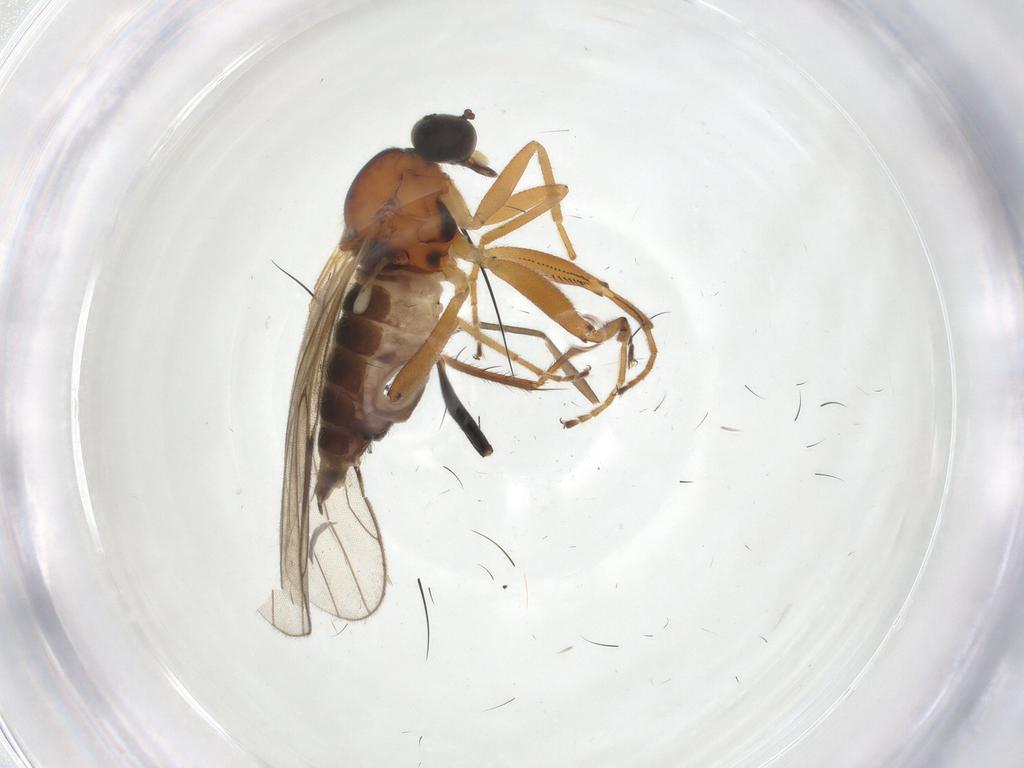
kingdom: Animalia
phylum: Arthropoda
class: Insecta
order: Diptera
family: Hybotidae
